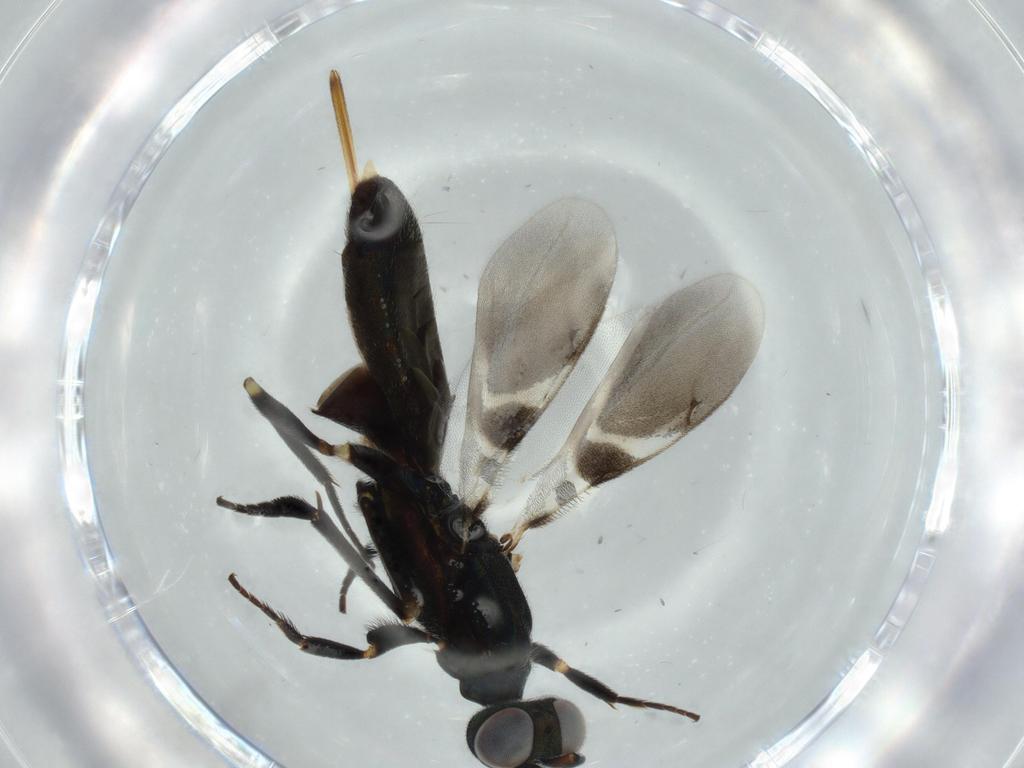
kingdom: Animalia
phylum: Arthropoda
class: Insecta
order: Hymenoptera
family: Eupelmidae
